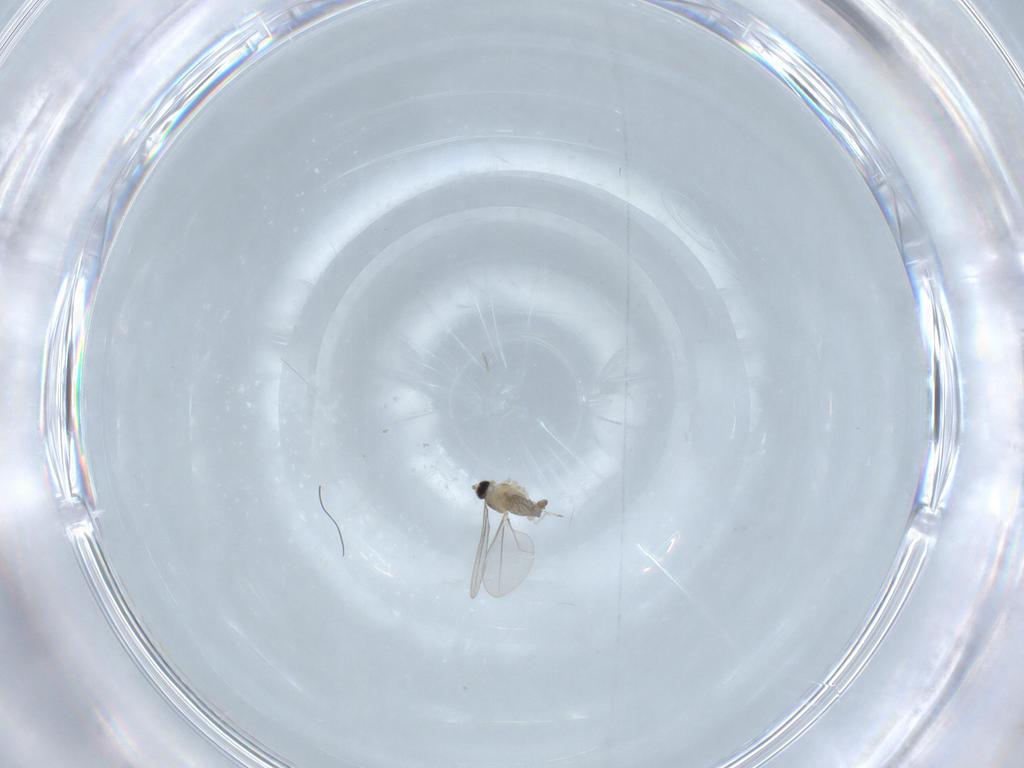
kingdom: Animalia
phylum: Arthropoda
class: Insecta
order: Diptera
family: Cecidomyiidae
